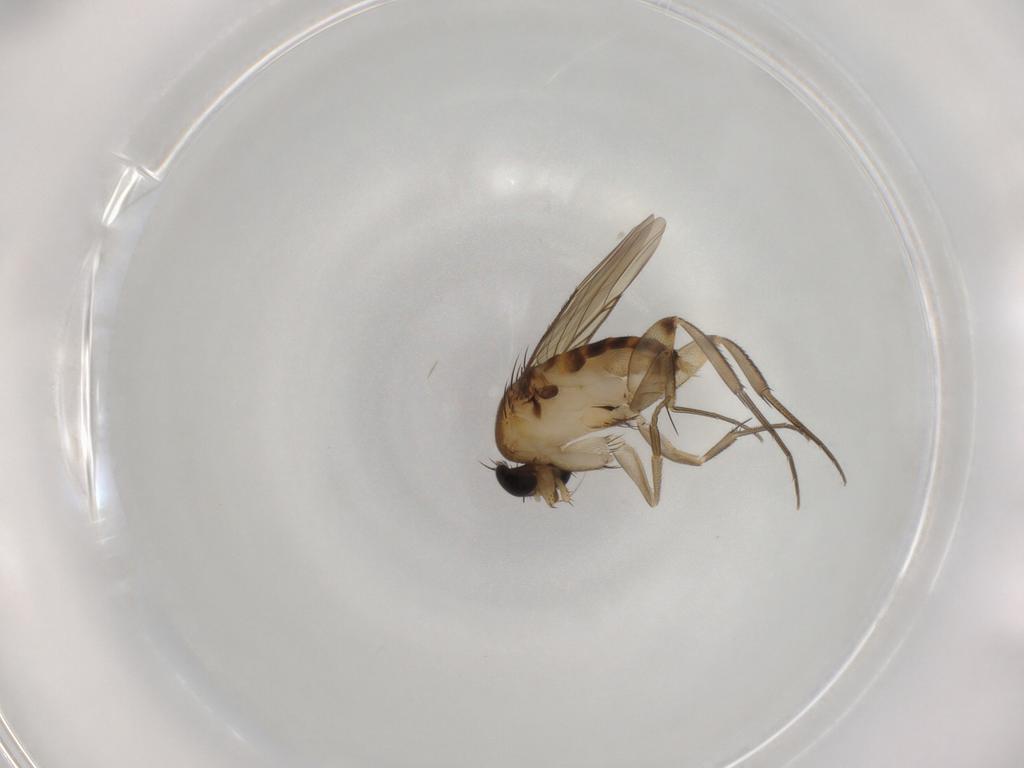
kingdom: Animalia
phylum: Arthropoda
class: Insecta
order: Diptera
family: Phoridae
